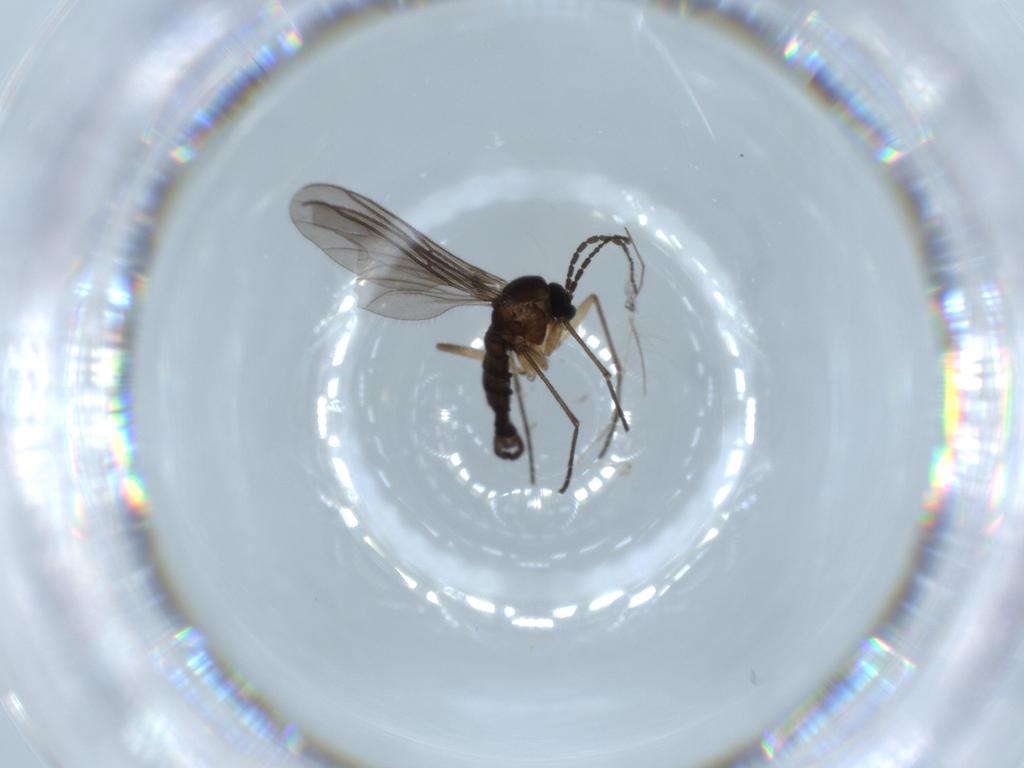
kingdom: Animalia
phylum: Arthropoda
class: Insecta
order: Diptera
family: Sciaridae
